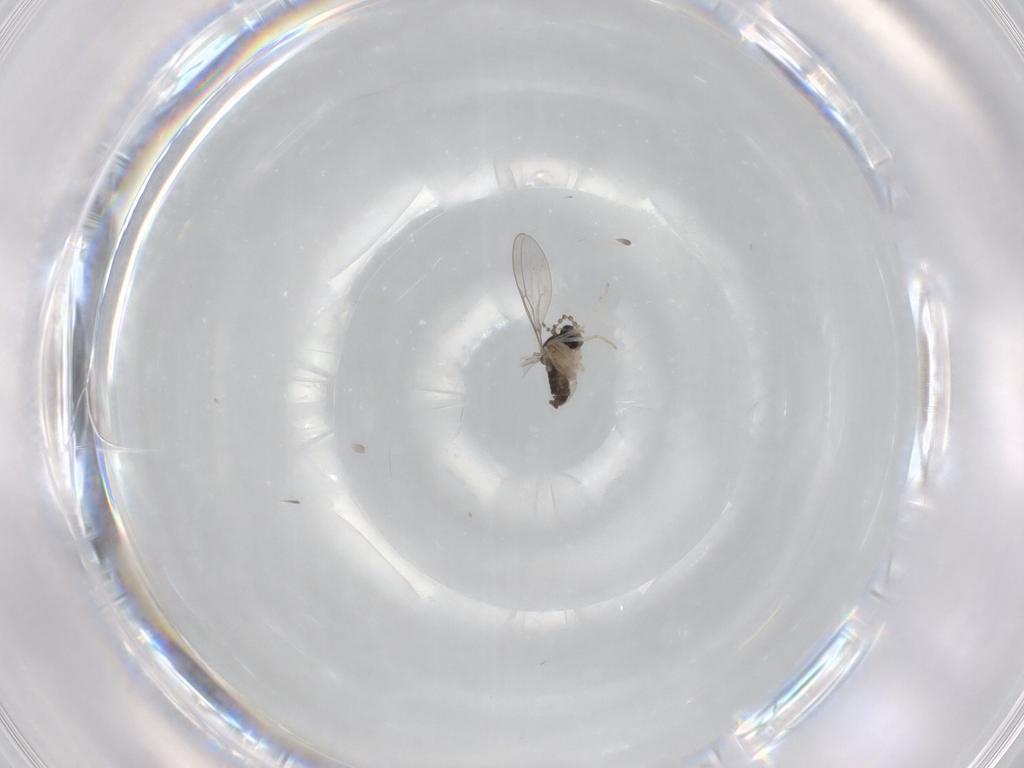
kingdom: Animalia
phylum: Arthropoda
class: Insecta
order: Diptera
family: Cecidomyiidae
